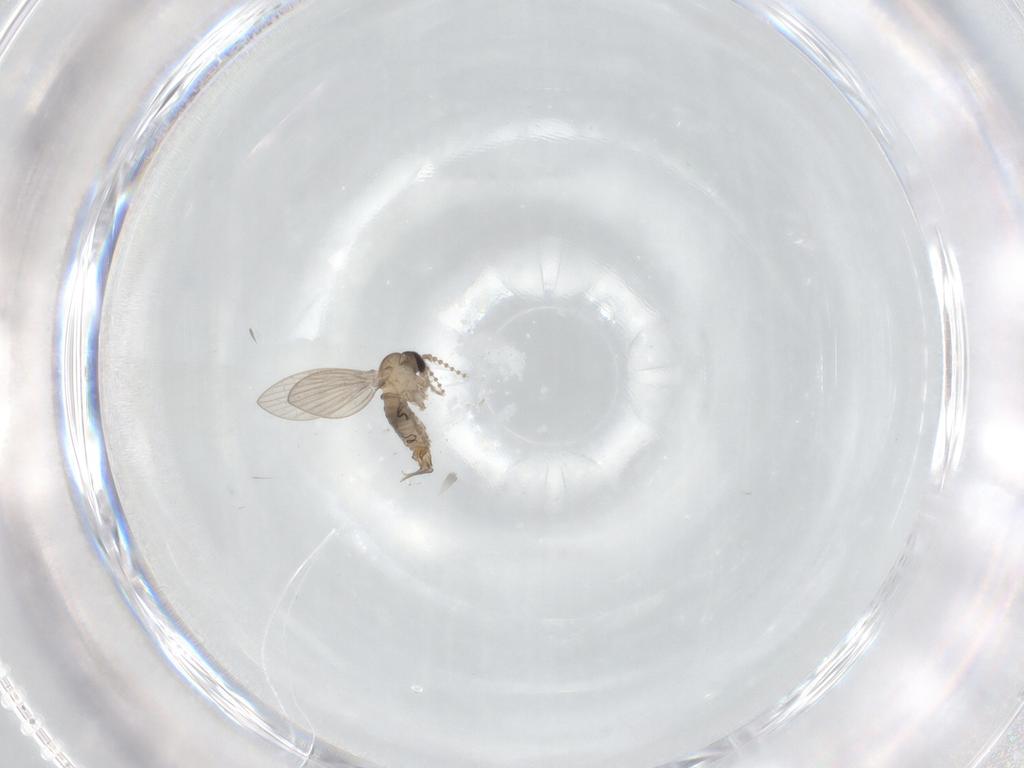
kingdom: Animalia
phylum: Arthropoda
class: Insecta
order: Diptera
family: Psychodidae
